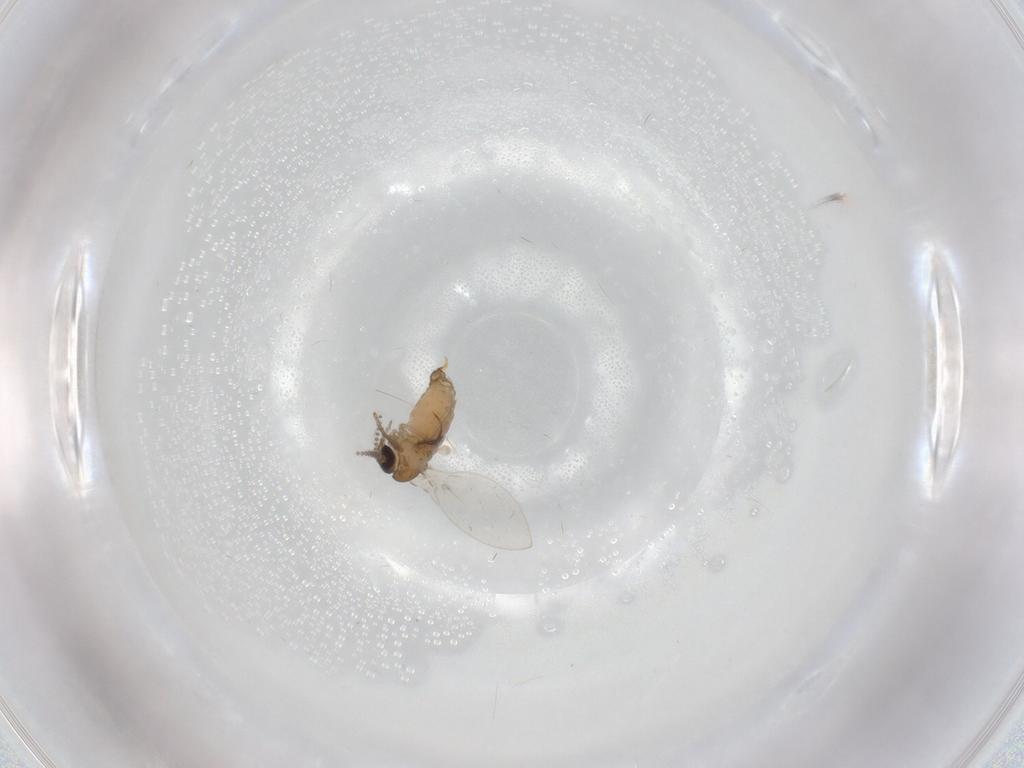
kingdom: Animalia
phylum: Arthropoda
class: Insecta
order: Diptera
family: Psychodidae
